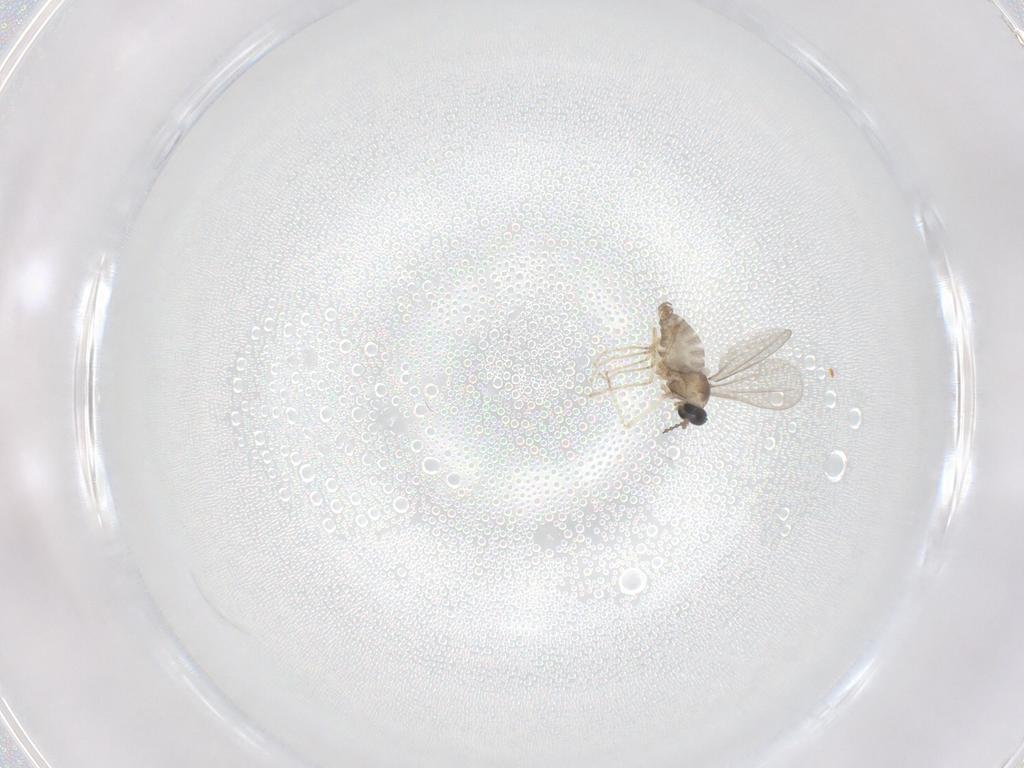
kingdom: Animalia
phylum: Arthropoda
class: Insecta
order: Diptera
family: Cecidomyiidae
